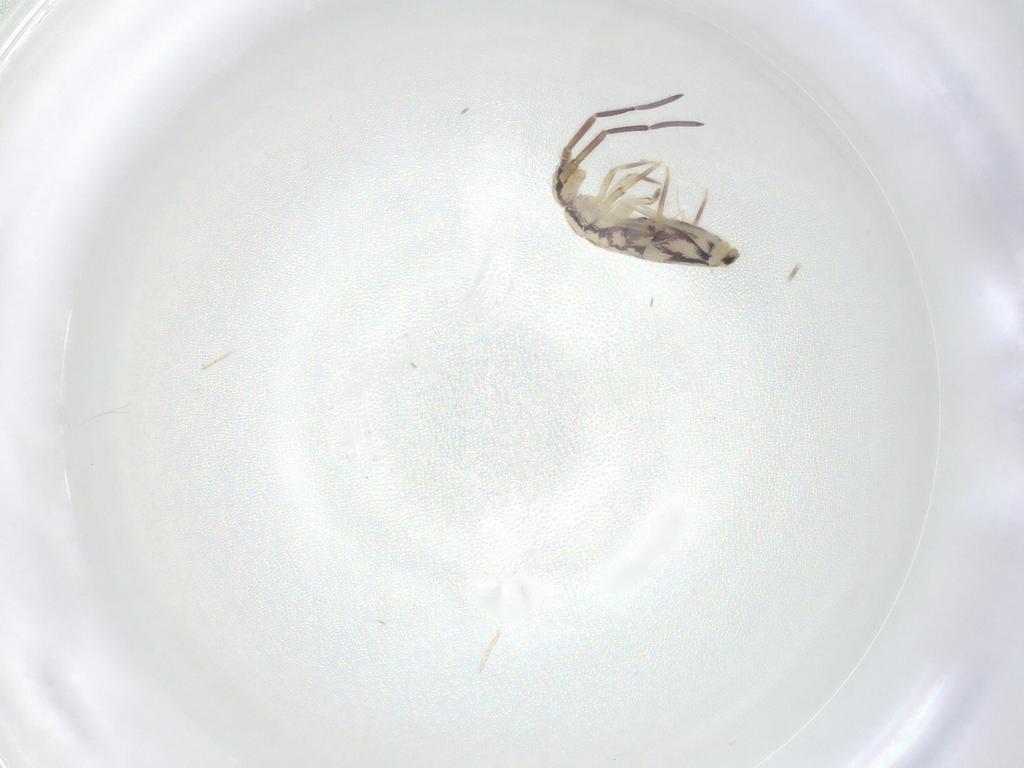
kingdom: Animalia
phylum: Arthropoda
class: Collembola
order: Entomobryomorpha
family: Entomobryidae
